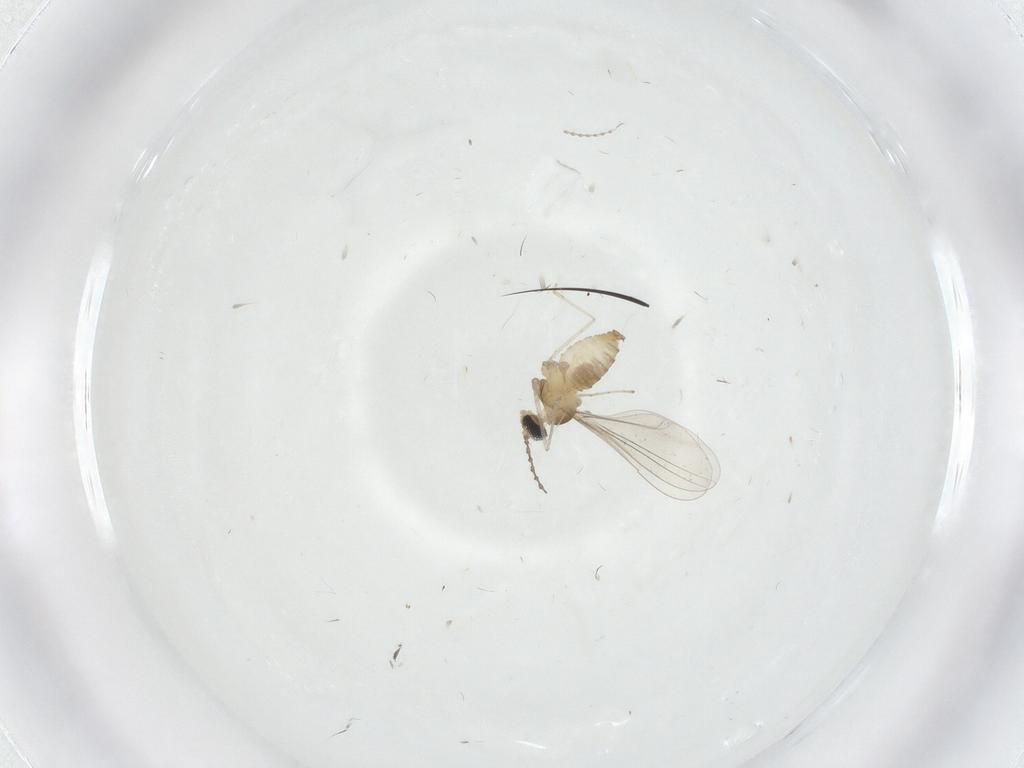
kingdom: Animalia
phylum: Arthropoda
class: Insecta
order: Diptera
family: Cecidomyiidae
